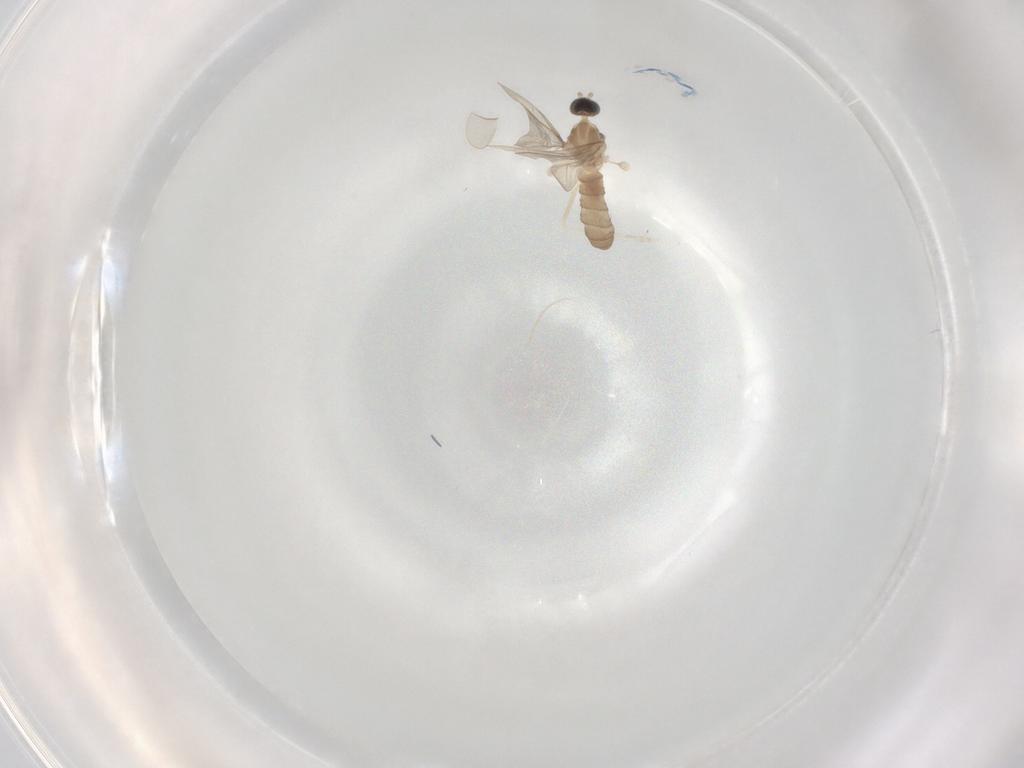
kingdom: Animalia
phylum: Arthropoda
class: Insecta
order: Diptera
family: Cecidomyiidae
